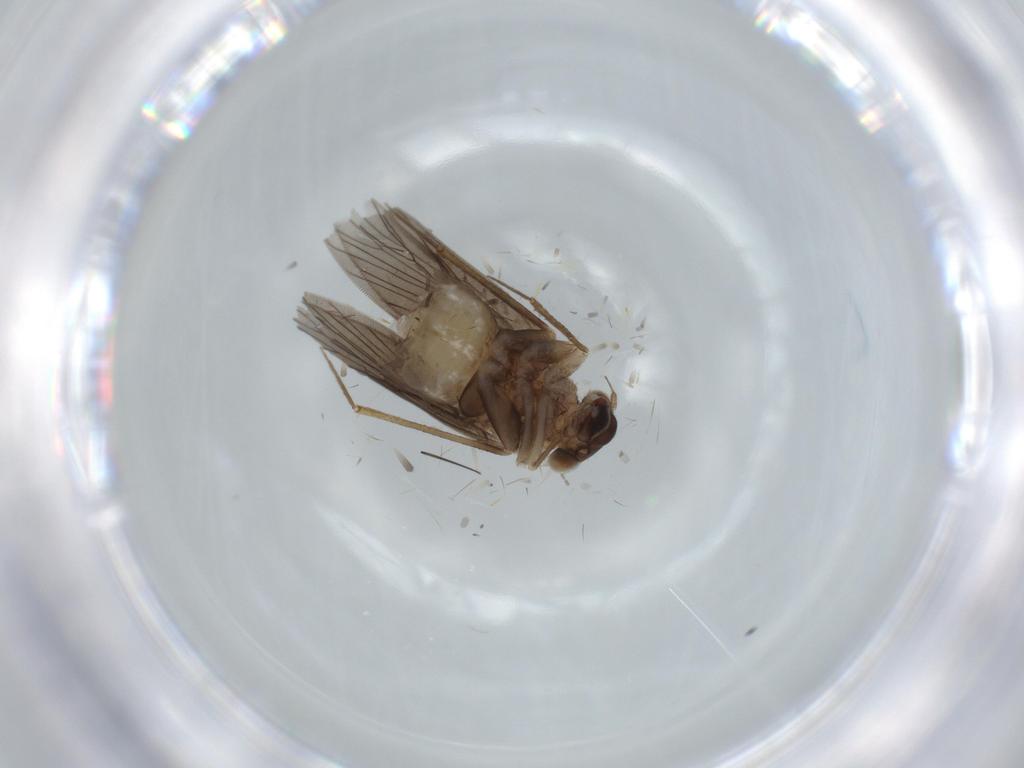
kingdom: Animalia
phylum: Arthropoda
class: Insecta
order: Psocodea
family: Lepidopsocidae
